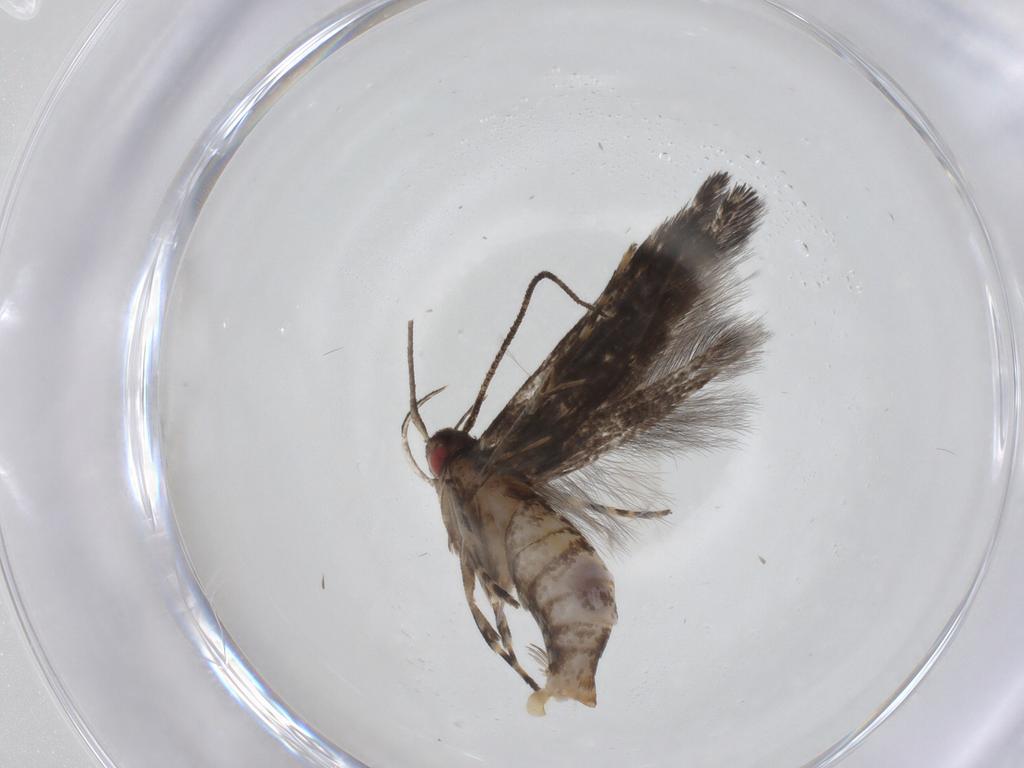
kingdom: Animalia
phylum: Arthropoda
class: Insecta
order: Lepidoptera
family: Cosmopterigidae
